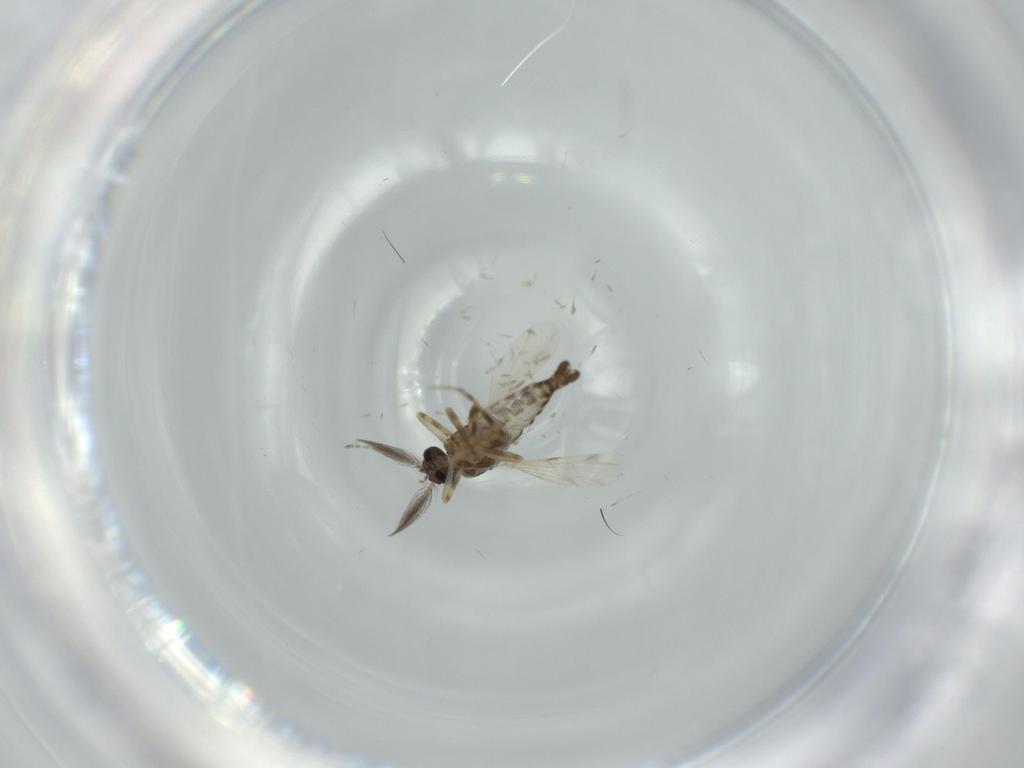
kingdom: Animalia
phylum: Arthropoda
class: Insecta
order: Diptera
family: Ceratopogonidae
